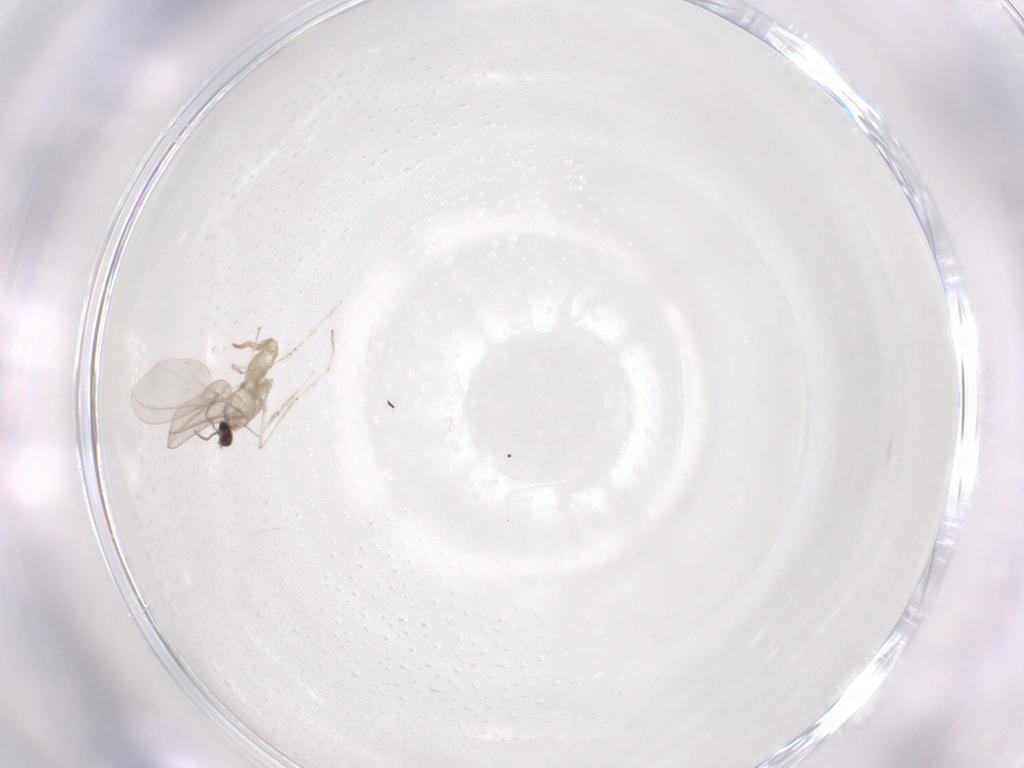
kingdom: Animalia
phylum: Arthropoda
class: Insecta
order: Diptera
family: Cecidomyiidae
